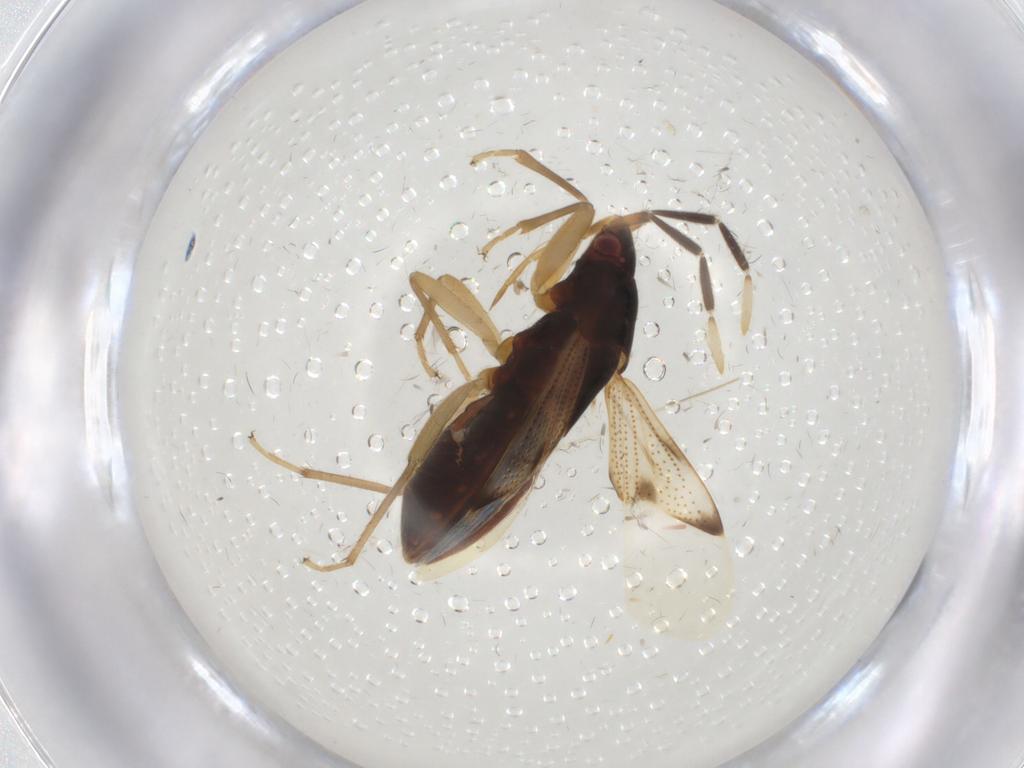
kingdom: Animalia
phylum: Arthropoda
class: Insecta
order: Hemiptera
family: Rhyparochromidae
